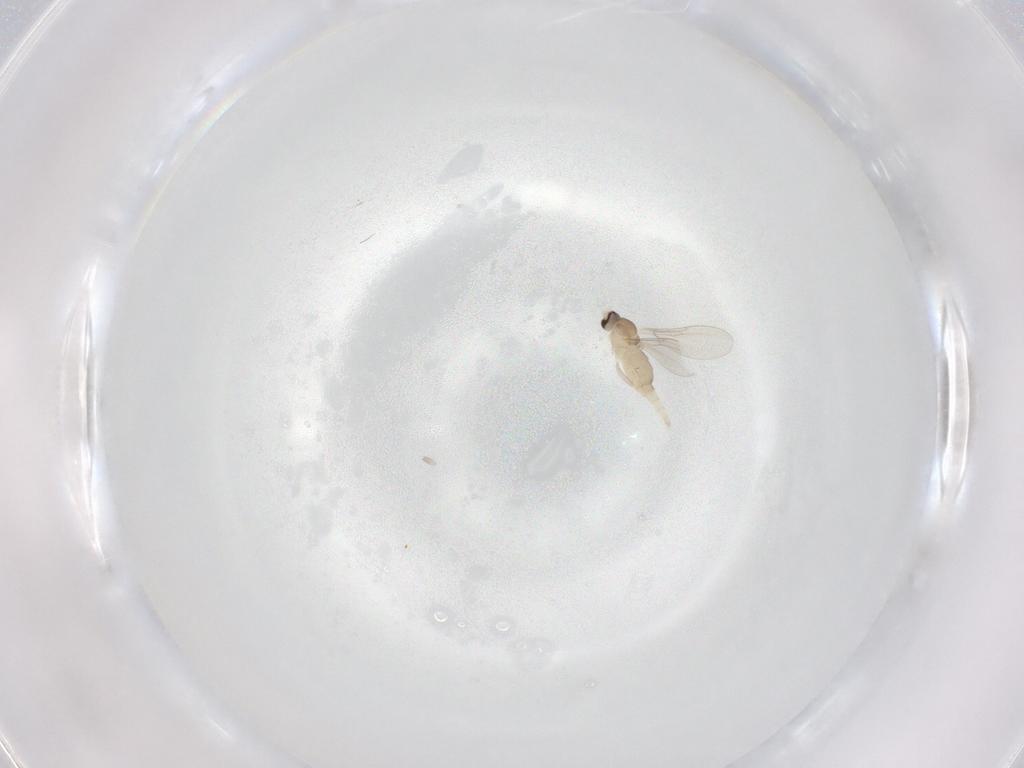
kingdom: Animalia
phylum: Arthropoda
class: Insecta
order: Diptera
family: Cecidomyiidae
